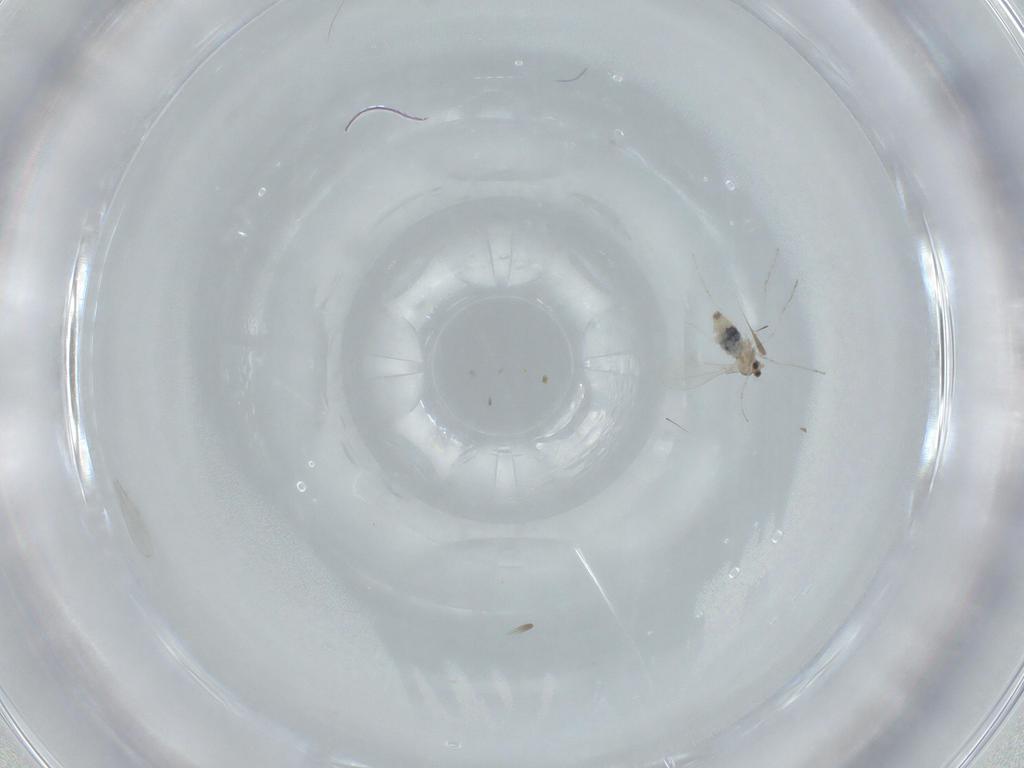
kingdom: Animalia
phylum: Arthropoda
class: Insecta
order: Diptera
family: Cecidomyiidae
